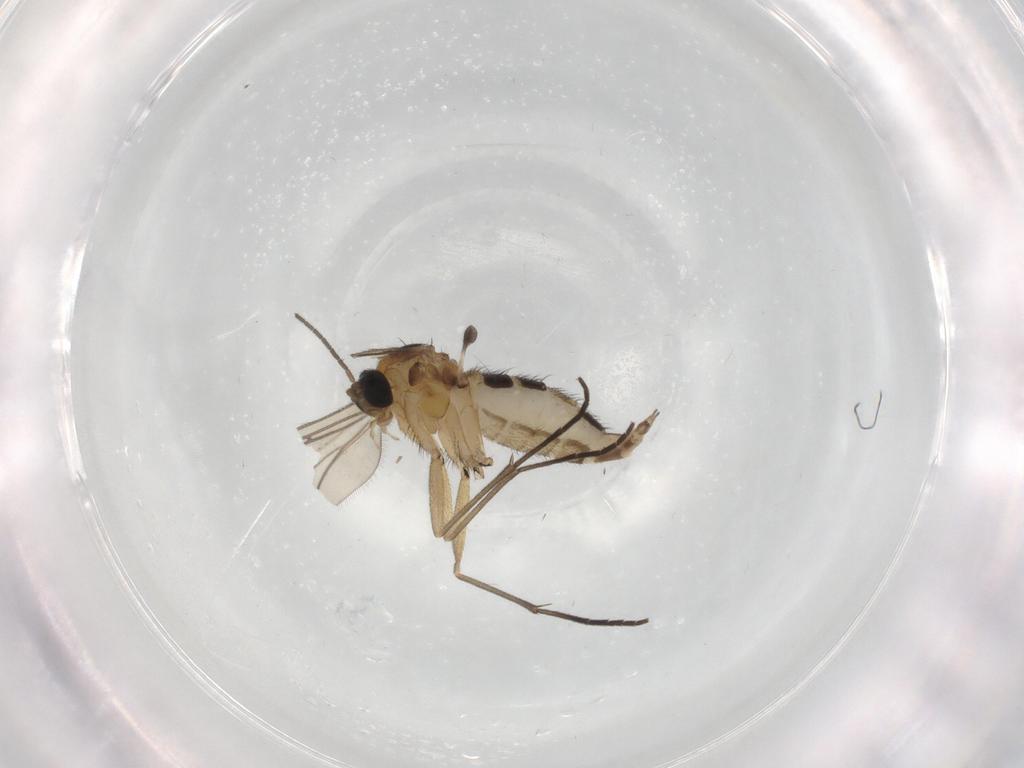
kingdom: Animalia
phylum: Arthropoda
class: Insecta
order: Diptera
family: Sciaridae
